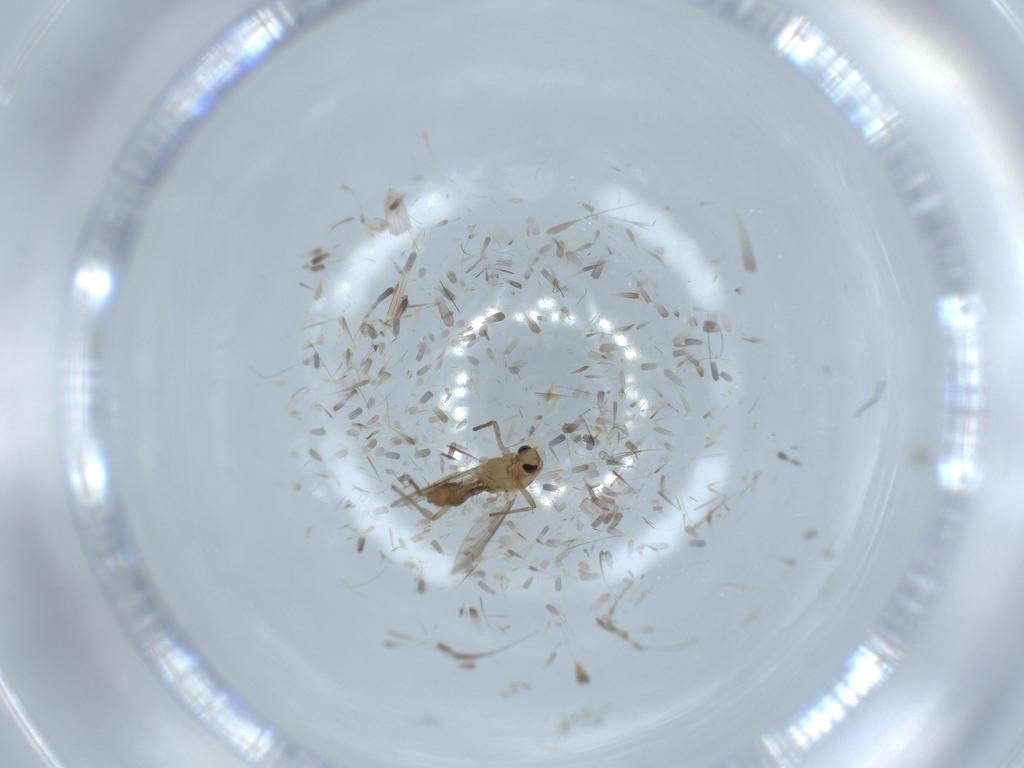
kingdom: Animalia
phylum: Arthropoda
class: Insecta
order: Diptera
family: Chironomidae
